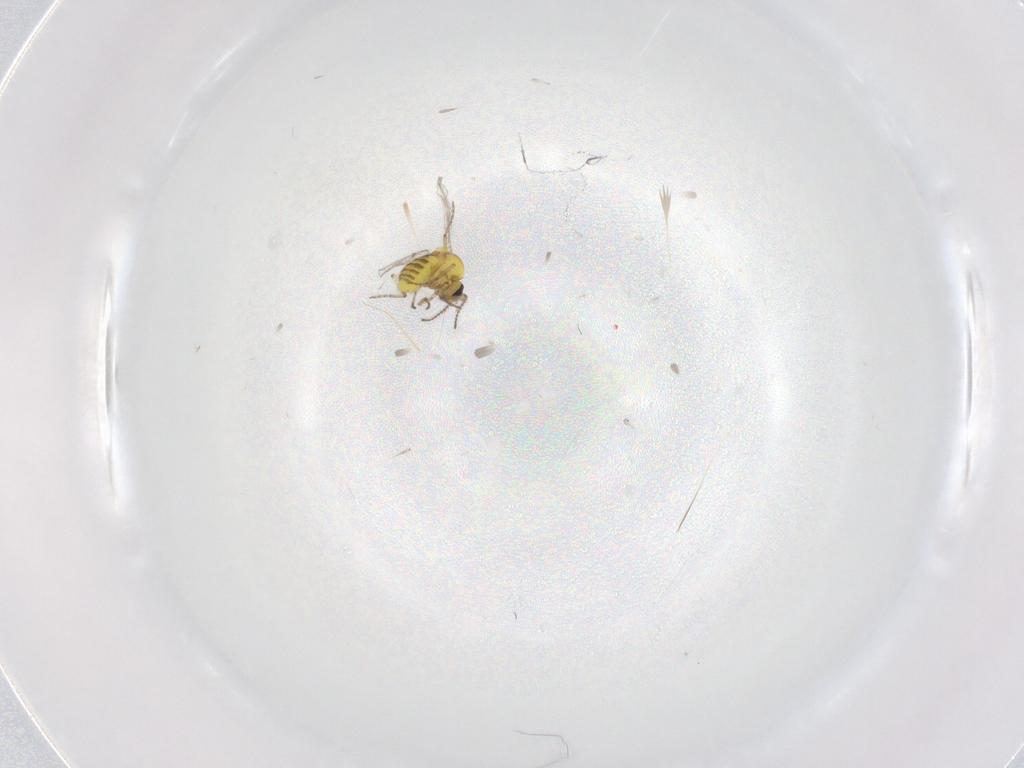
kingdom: Animalia
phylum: Arthropoda
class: Insecta
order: Diptera
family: Ceratopogonidae
